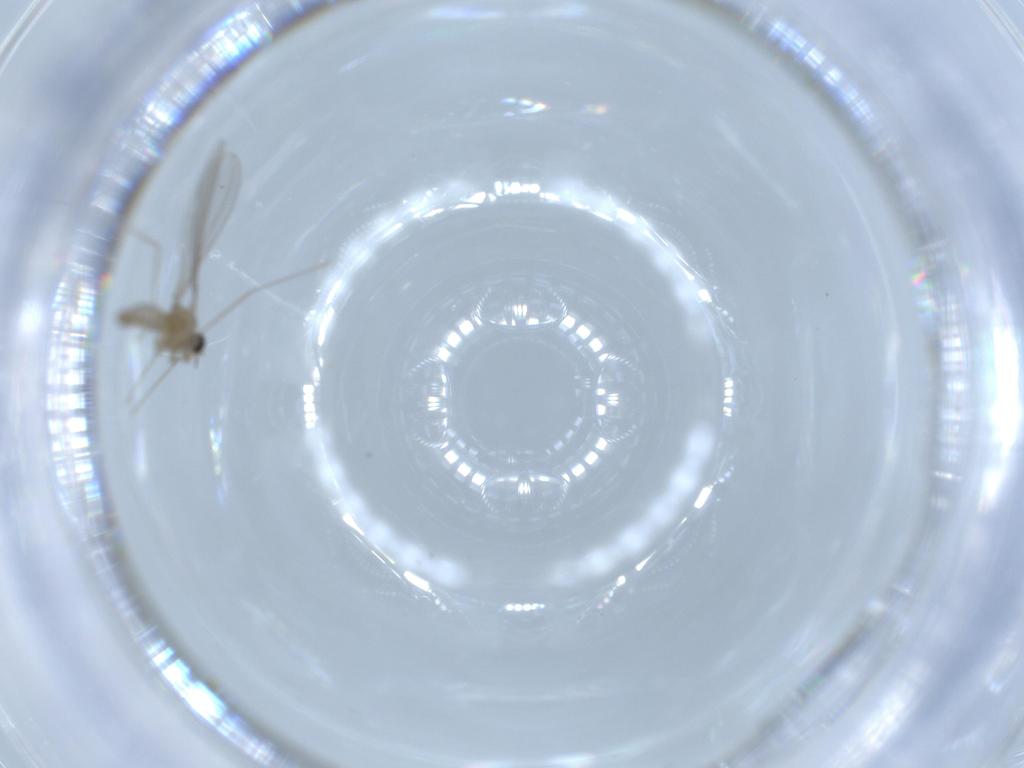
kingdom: Animalia
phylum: Arthropoda
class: Insecta
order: Diptera
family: Cecidomyiidae
